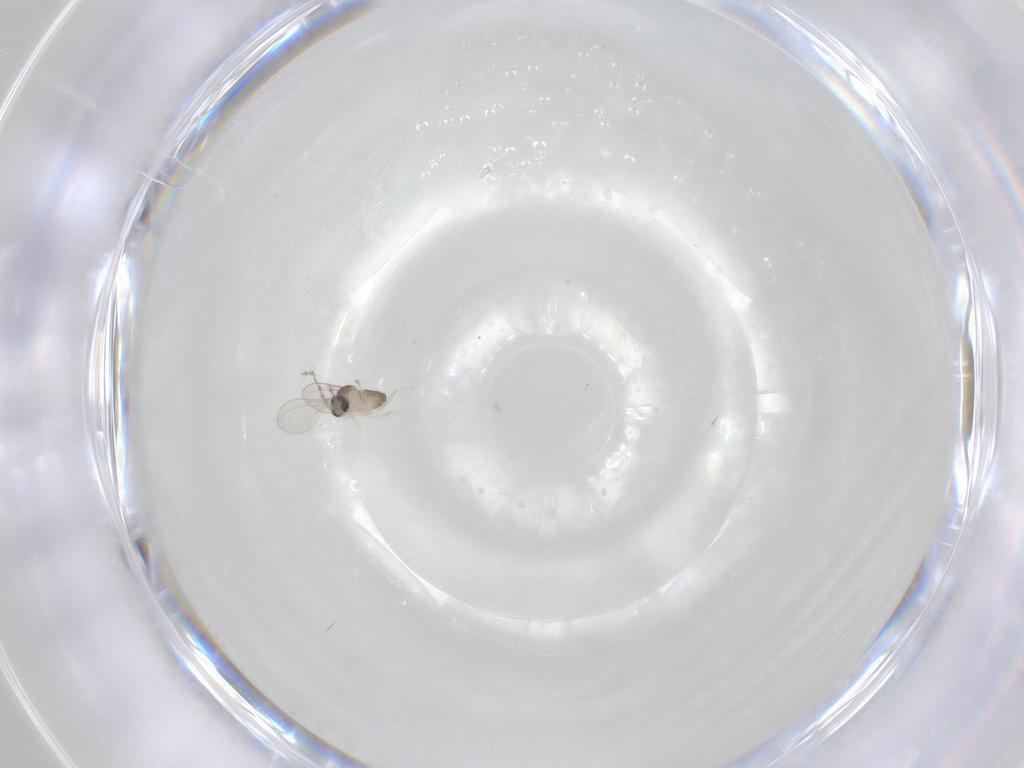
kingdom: Animalia
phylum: Arthropoda
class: Insecta
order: Diptera
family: Cecidomyiidae
